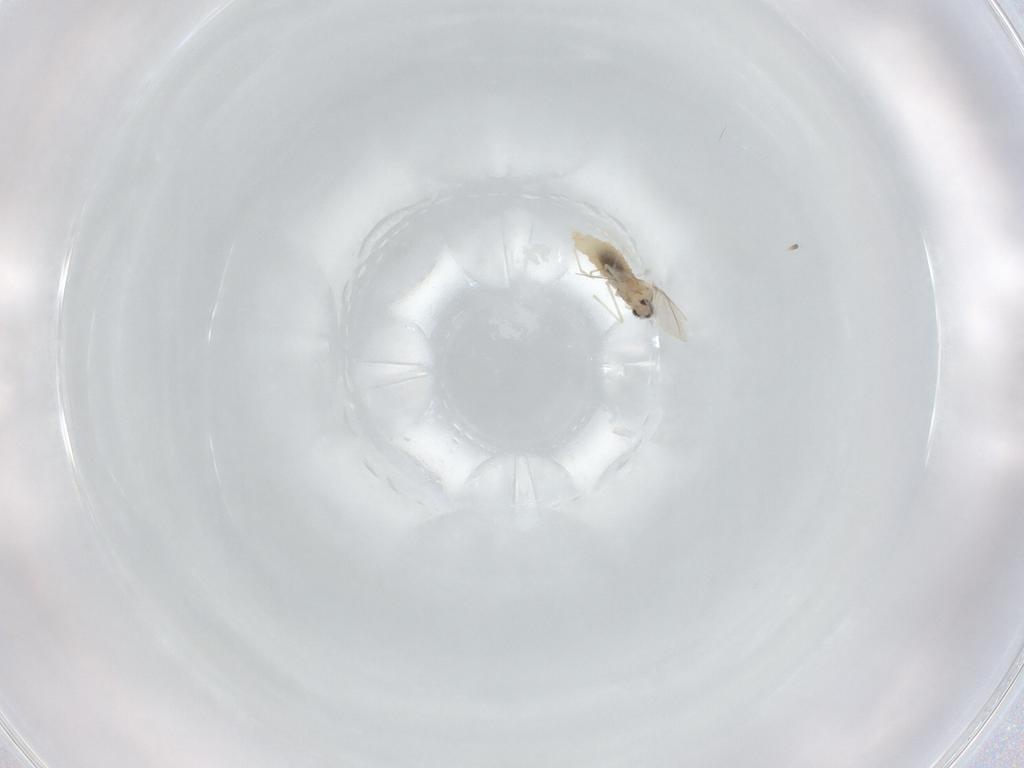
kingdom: Animalia
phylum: Arthropoda
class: Insecta
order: Diptera
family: Cecidomyiidae
